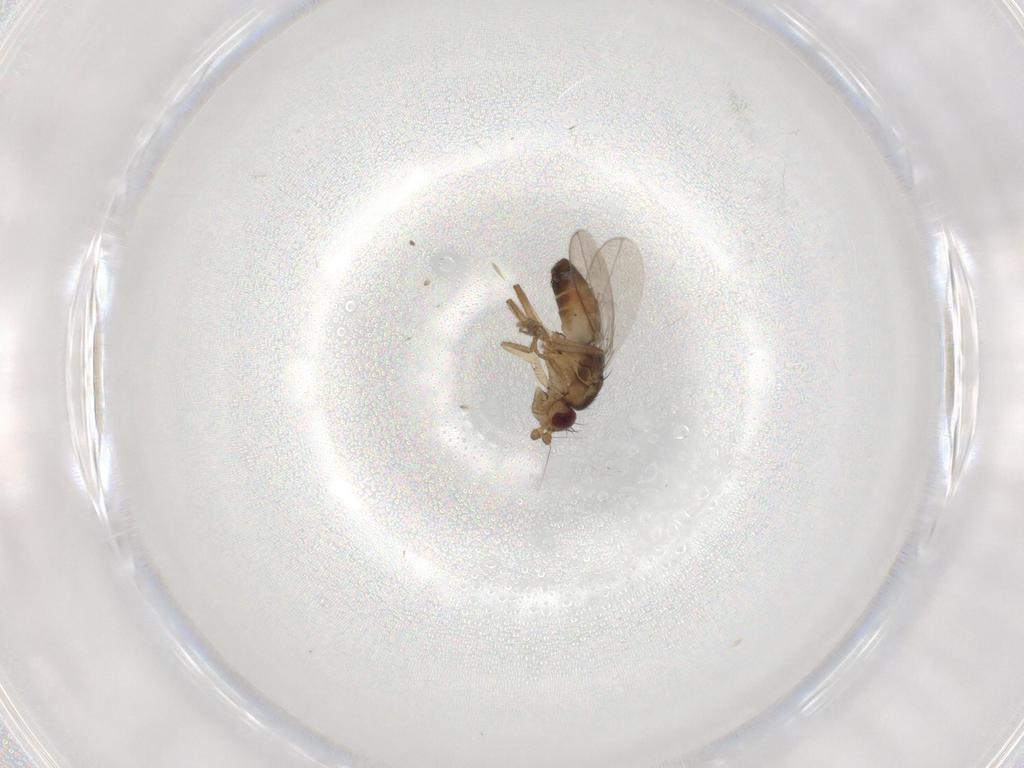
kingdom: Animalia
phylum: Arthropoda
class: Insecta
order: Diptera
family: Sphaeroceridae
